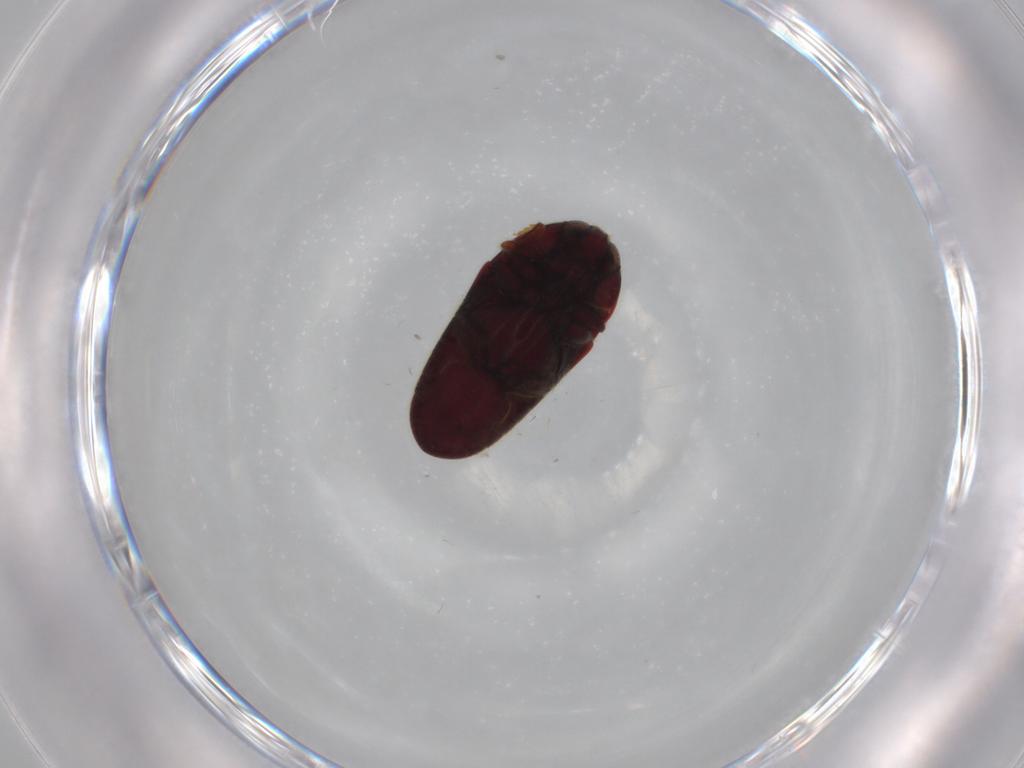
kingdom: Animalia
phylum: Arthropoda
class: Insecta
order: Coleoptera
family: Throscidae
